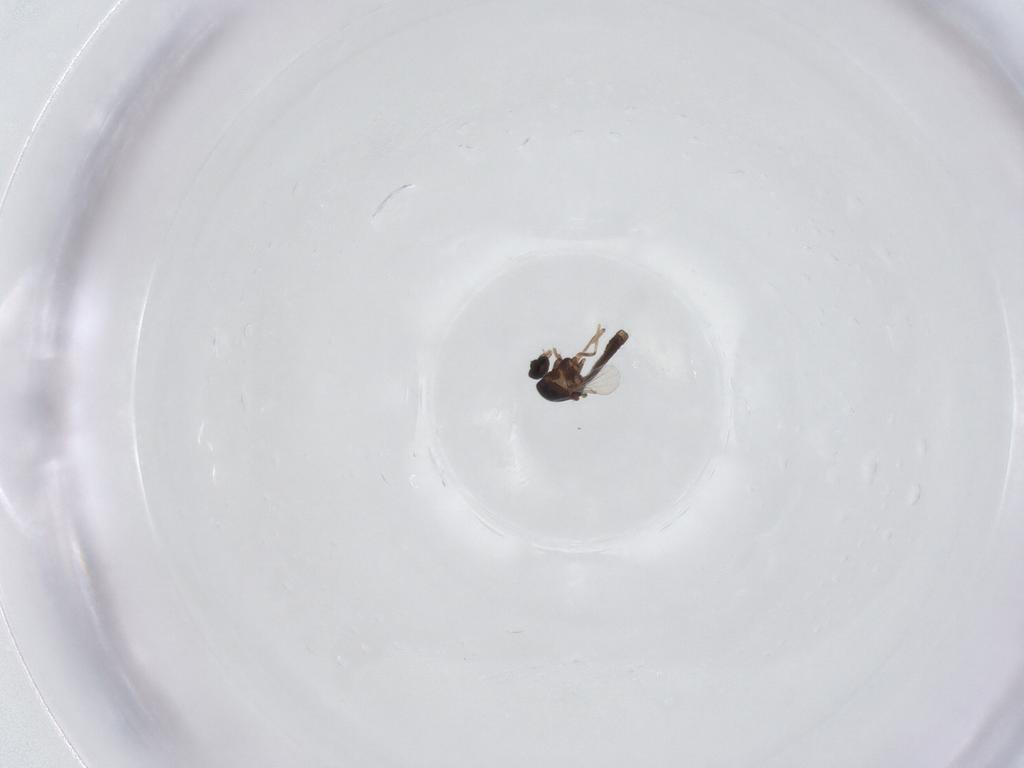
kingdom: Animalia
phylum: Arthropoda
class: Insecta
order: Diptera
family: Ceratopogonidae
